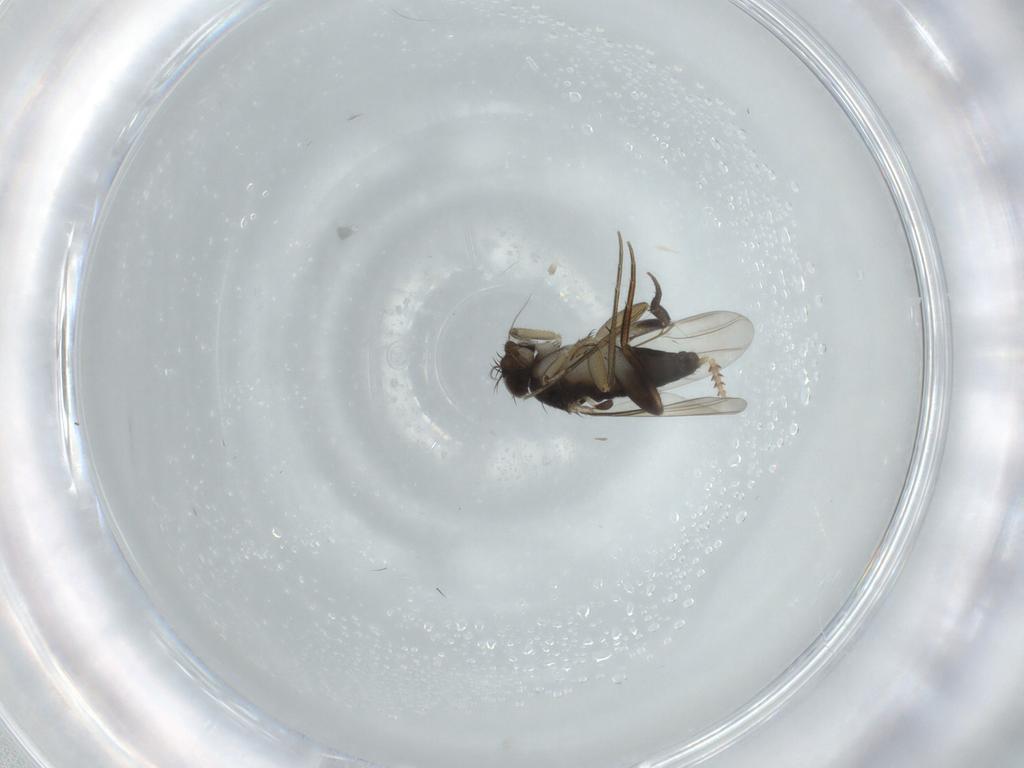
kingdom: Animalia
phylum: Arthropoda
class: Insecta
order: Diptera
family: Phoridae
